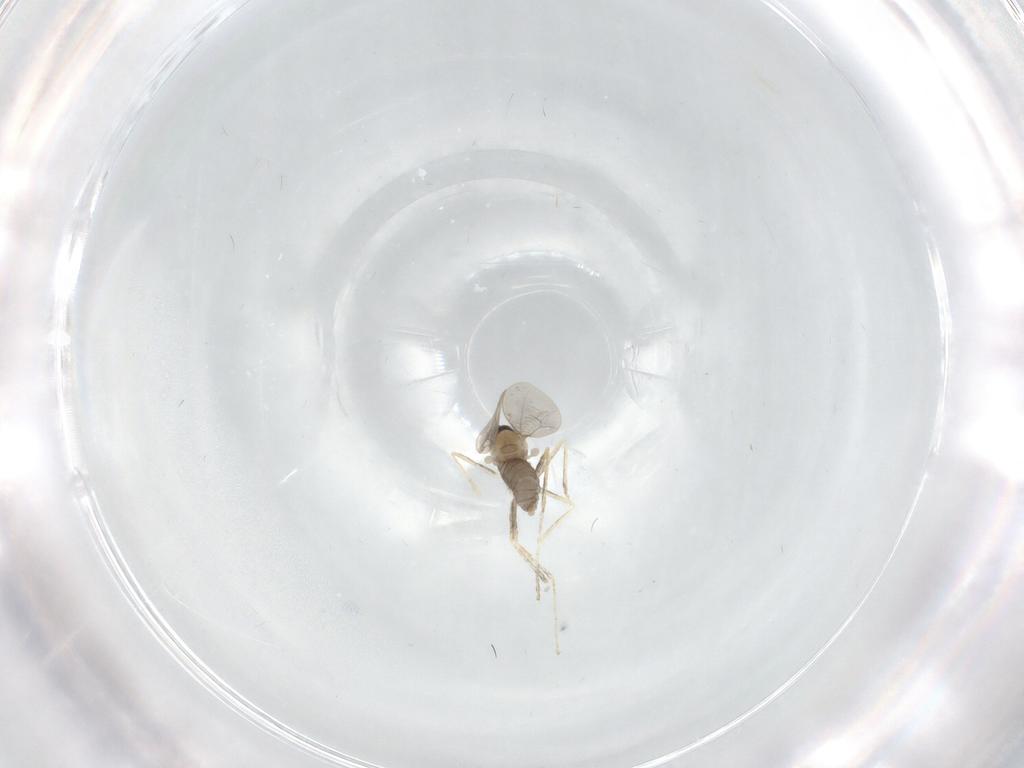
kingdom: Animalia
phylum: Arthropoda
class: Insecta
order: Diptera
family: Cecidomyiidae
